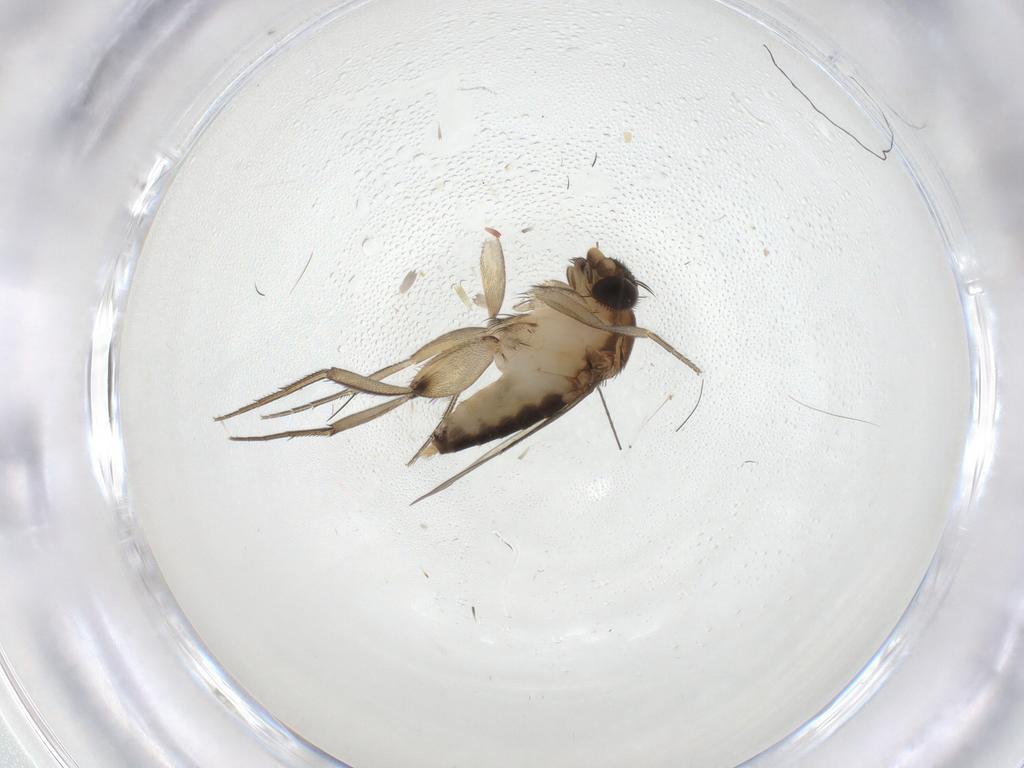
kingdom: Animalia
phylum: Arthropoda
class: Insecta
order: Diptera
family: Phoridae
